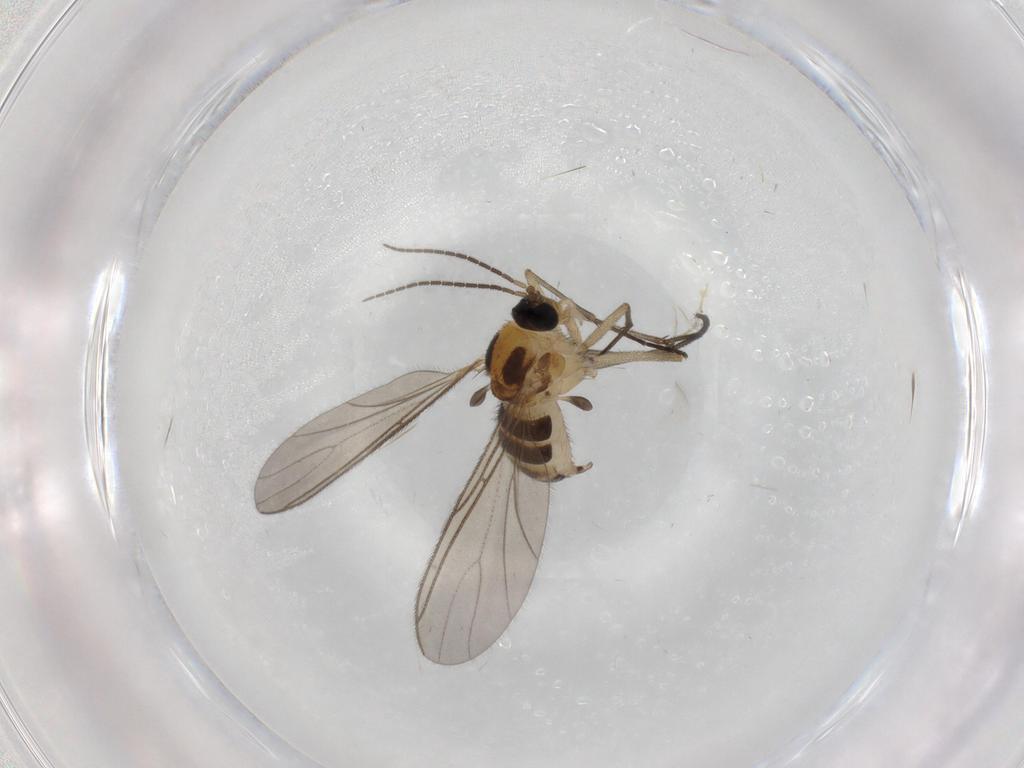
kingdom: Animalia
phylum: Arthropoda
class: Insecta
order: Diptera
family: Sciaridae
